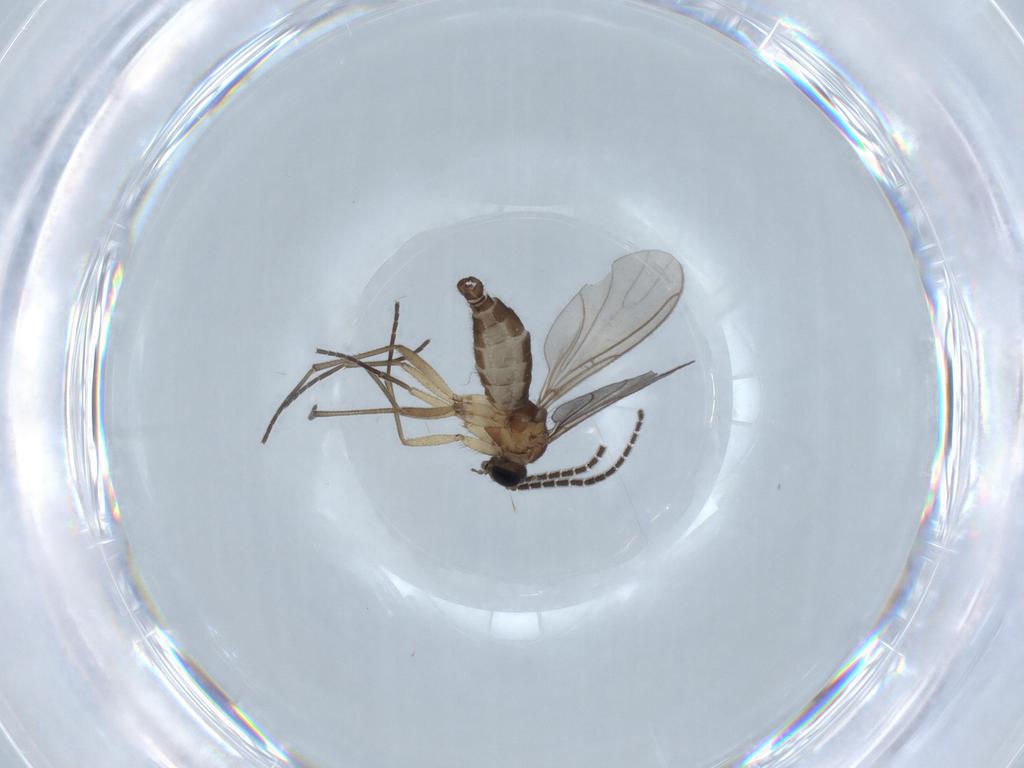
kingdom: Animalia
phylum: Arthropoda
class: Insecta
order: Diptera
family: Sciaridae
